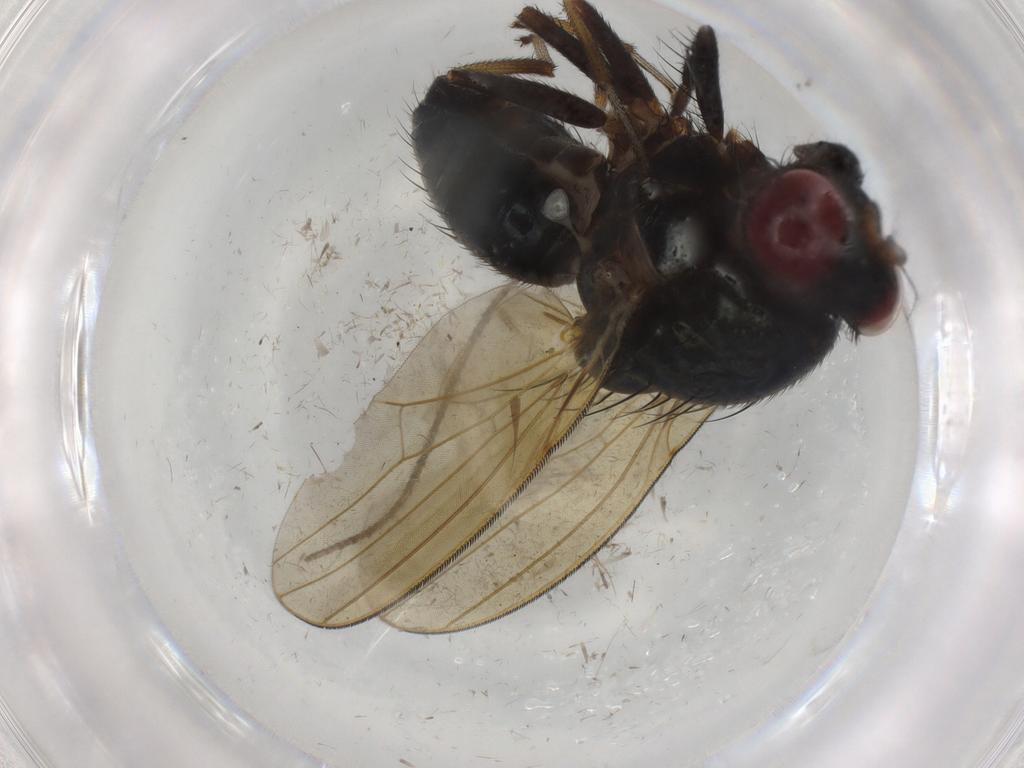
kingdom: Animalia
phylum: Arthropoda
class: Insecta
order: Diptera
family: Lauxaniidae
